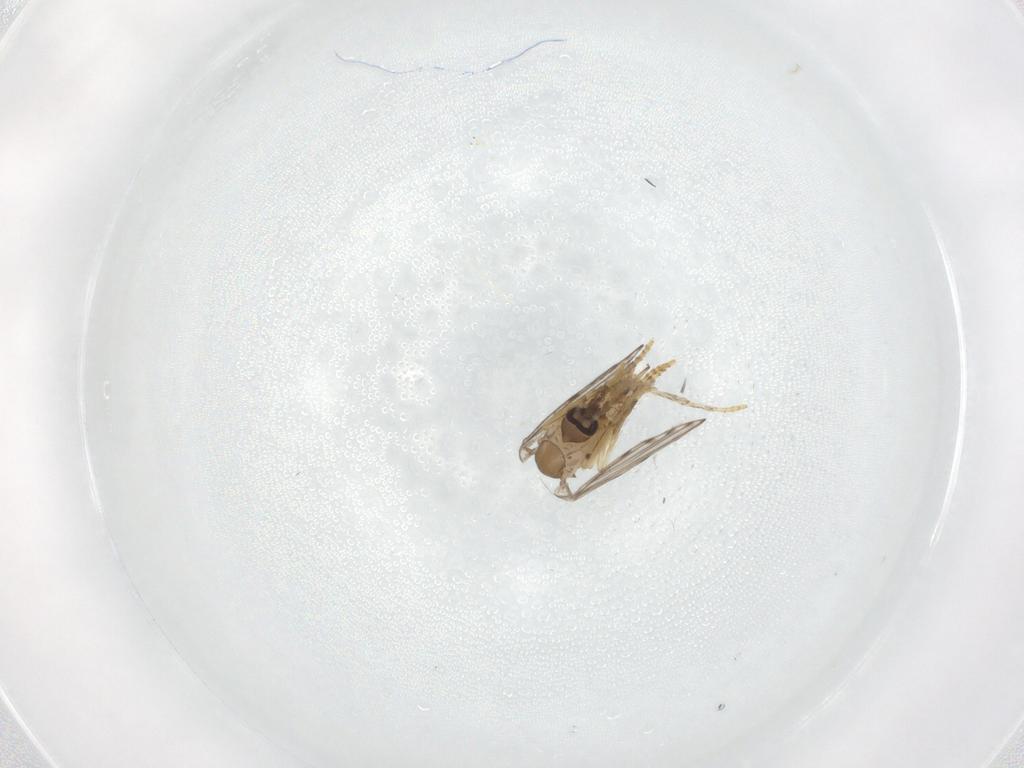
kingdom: Animalia
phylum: Arthropoda
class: Insecta
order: Diptera
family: Psychodidae
